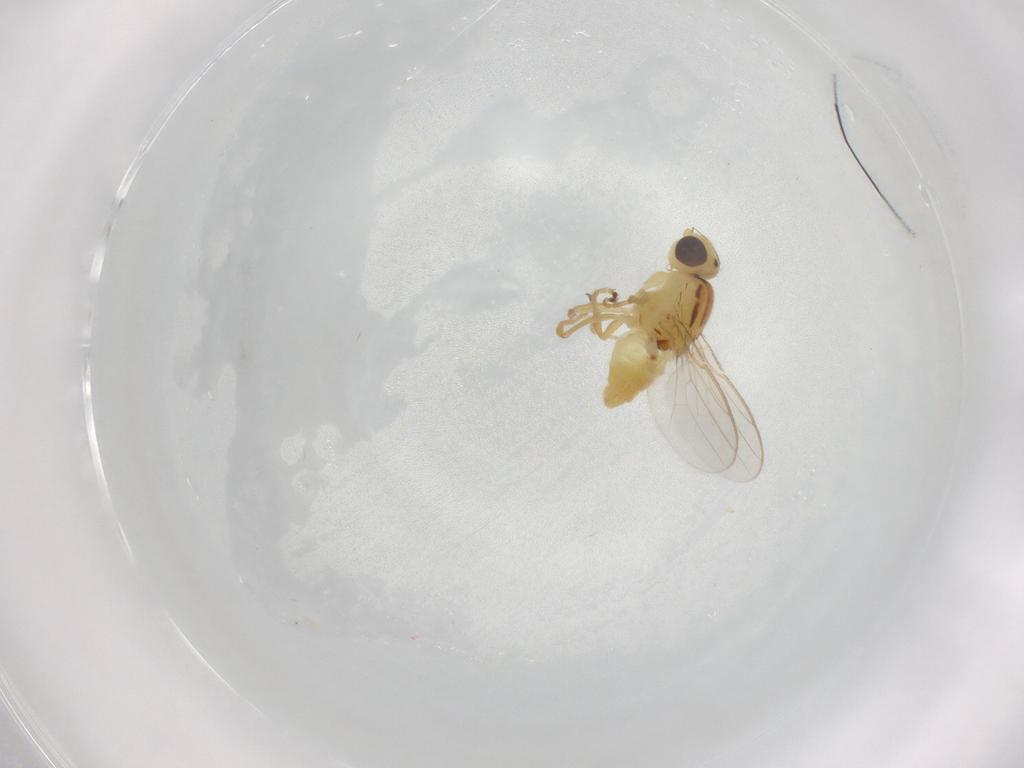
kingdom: Animalia
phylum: Arthropoda
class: Insecta
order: Diptera
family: Chloropidae
